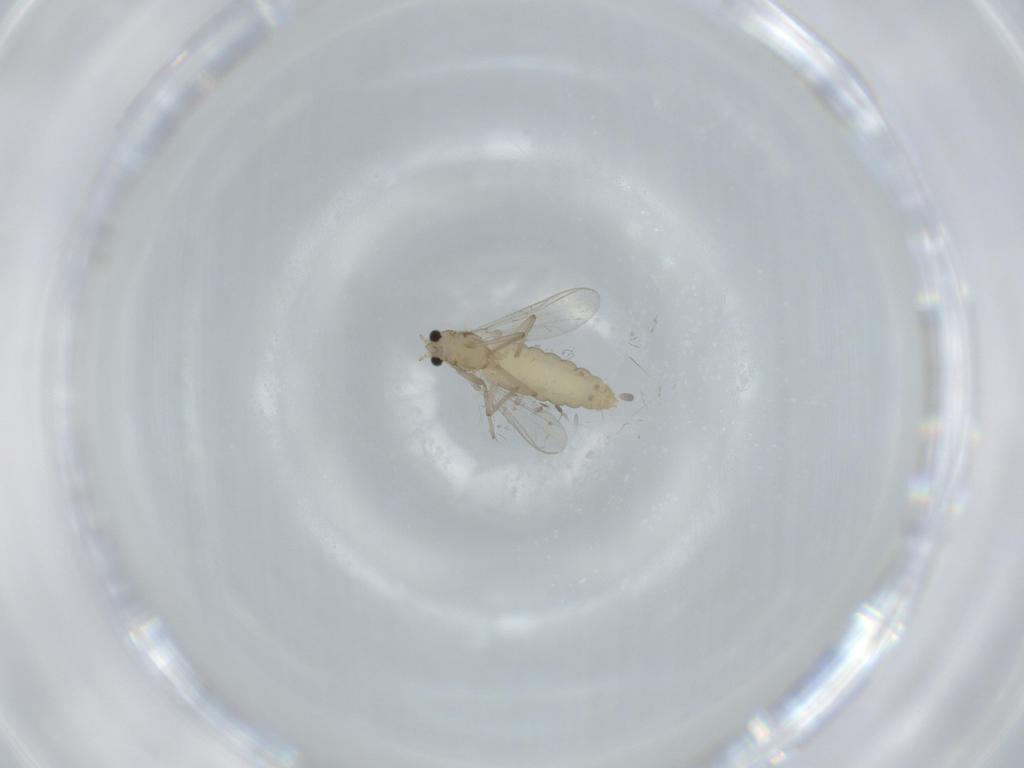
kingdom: Animalia
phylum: Arthropoda
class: Insecta
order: Diptera
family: Chironomidae
